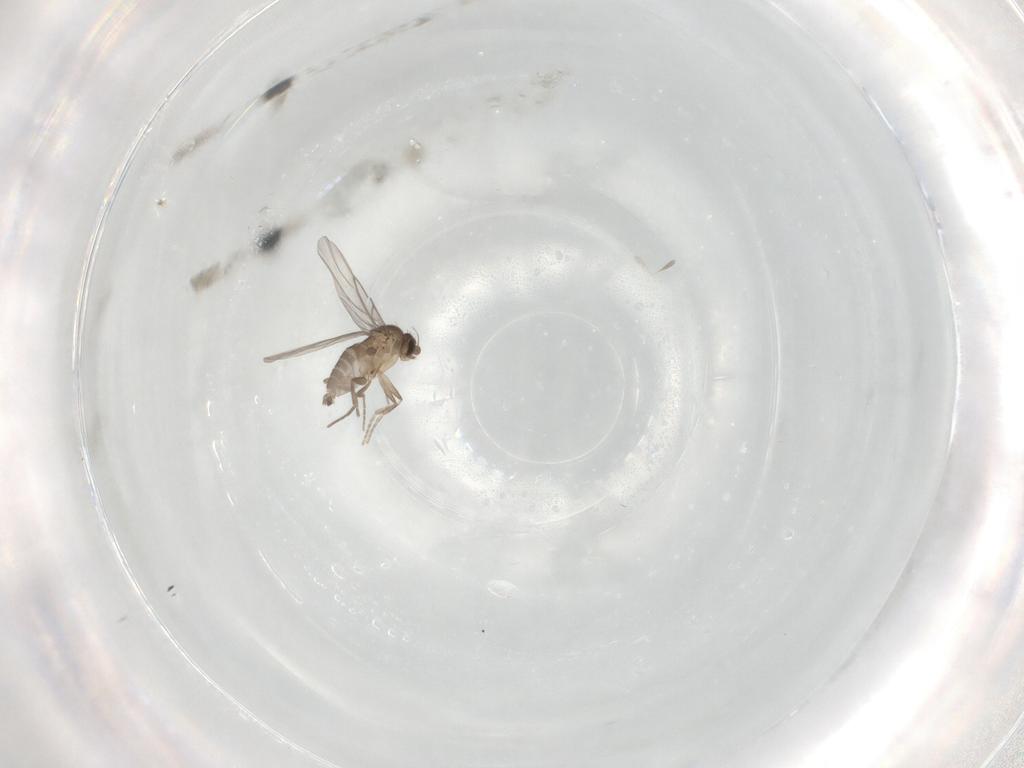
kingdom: Animalia
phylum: Arthropoda
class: Insecta
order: Diptera
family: Phoridae
